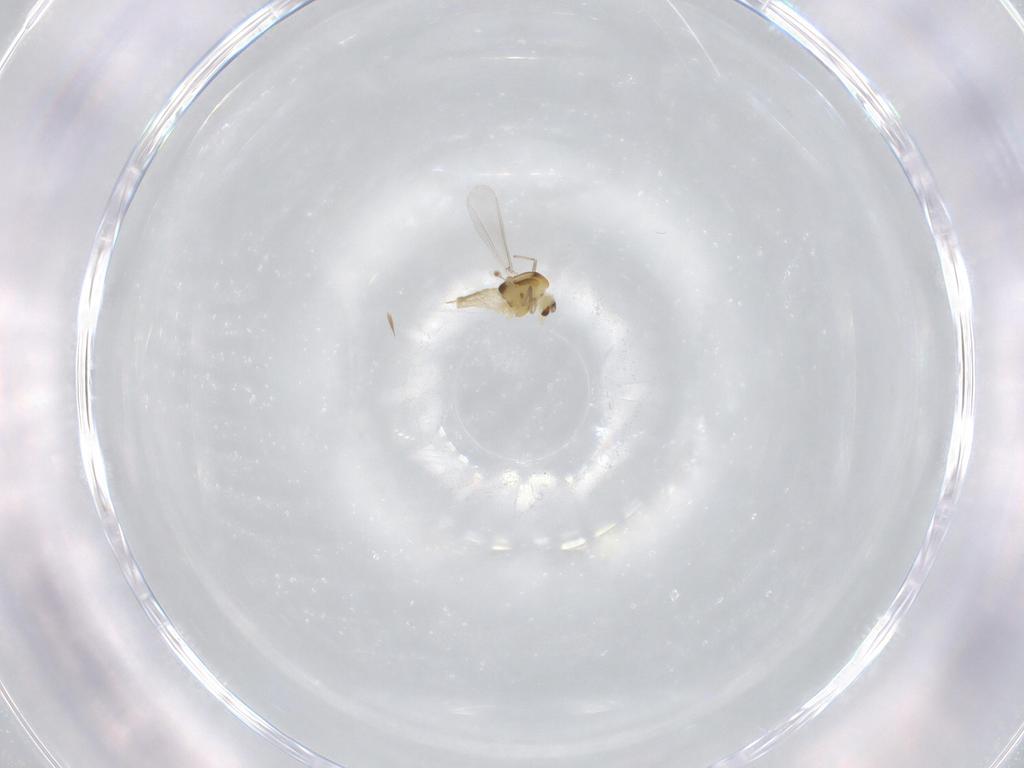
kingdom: Animalia
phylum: Arthropoda
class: Insecta
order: Diptera
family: Chironomidae
